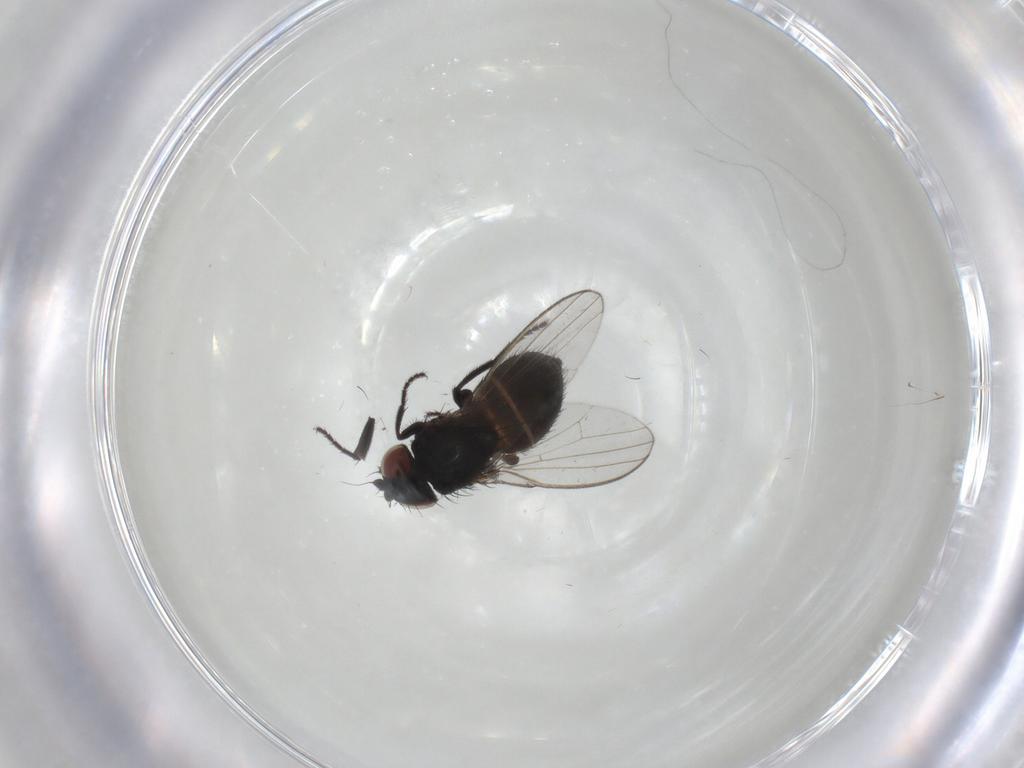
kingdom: Animalia
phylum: Arthropoda
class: Insecta
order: Diptera
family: Milichiidae
